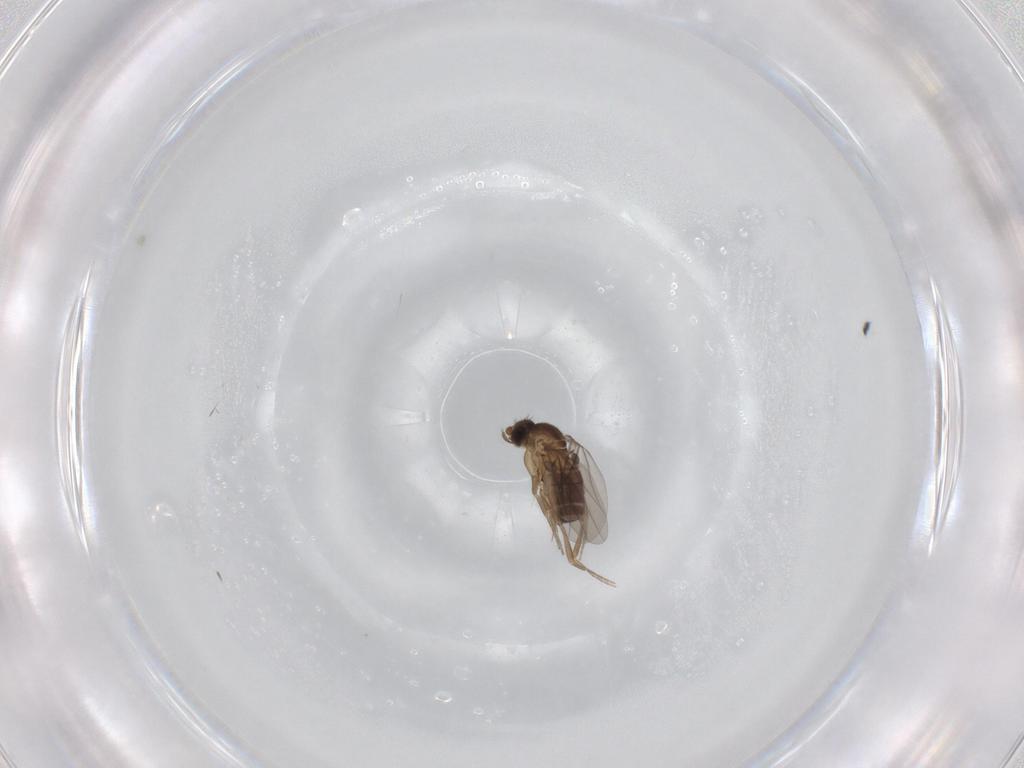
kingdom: Animalia
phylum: Arthropoda
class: Insecta
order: Diptera
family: Phoridae
